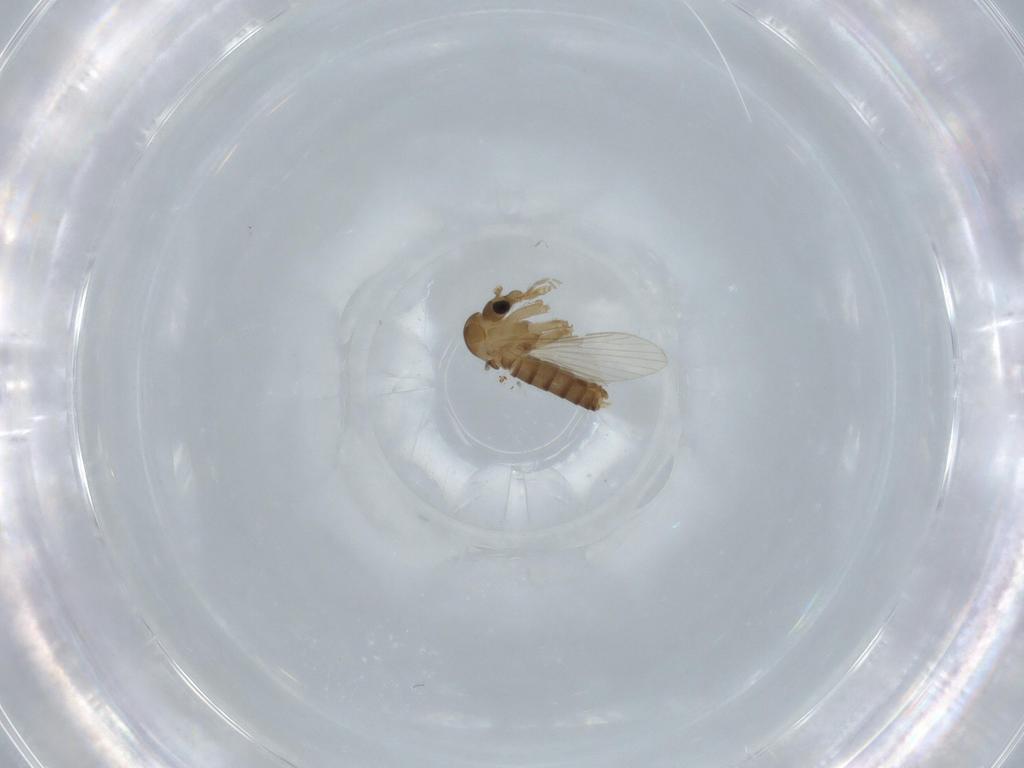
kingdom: Animalia
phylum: Arthropoda
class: Insecta
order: Diptera
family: Psychodidae
